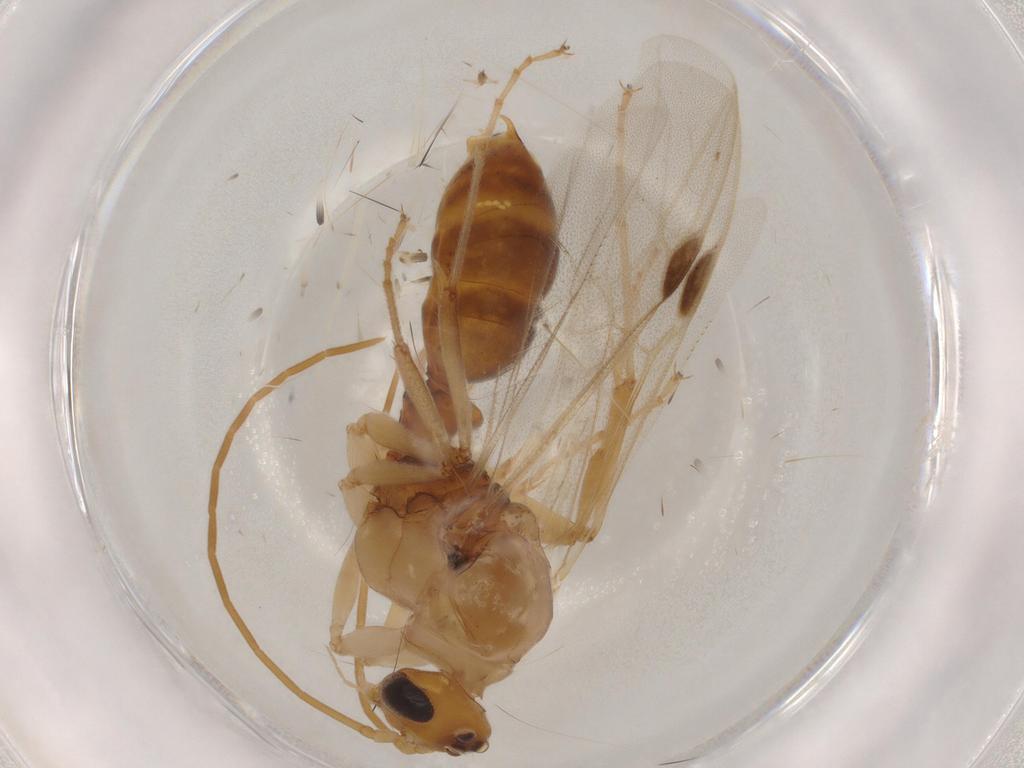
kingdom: Animalia
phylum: Arthropoda
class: Insecta
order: Hymenoptera
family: Formicidae
